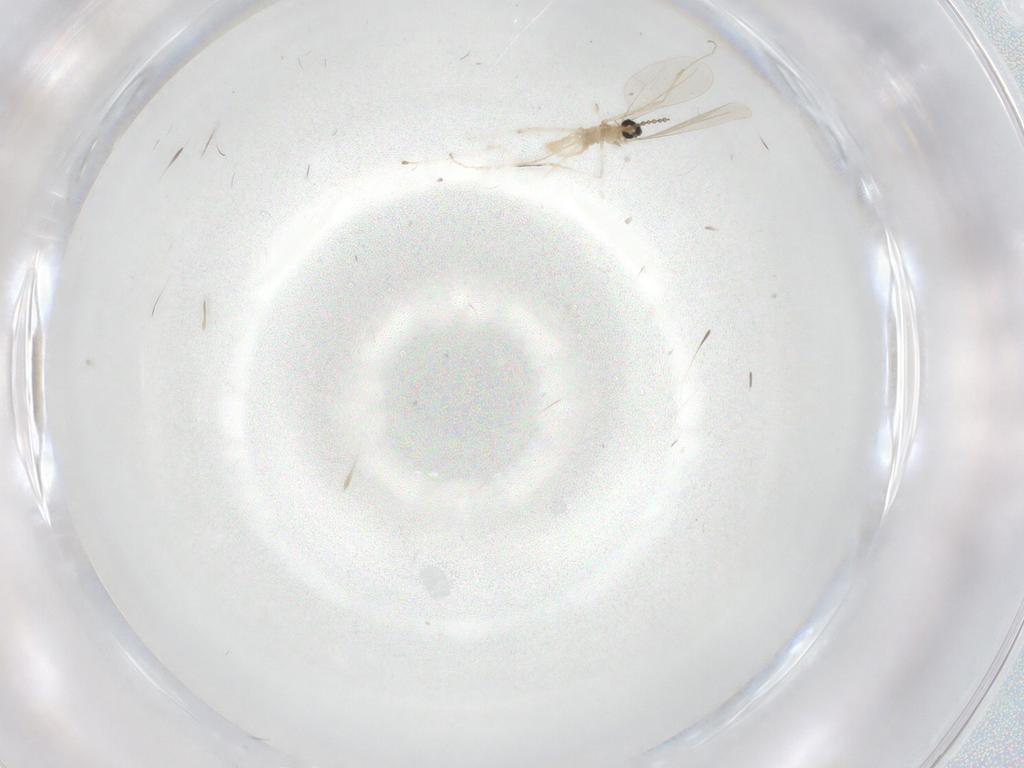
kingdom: Animalia
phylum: Arthropoda
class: Insecta
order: Diptera
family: Cecidomyiidae
